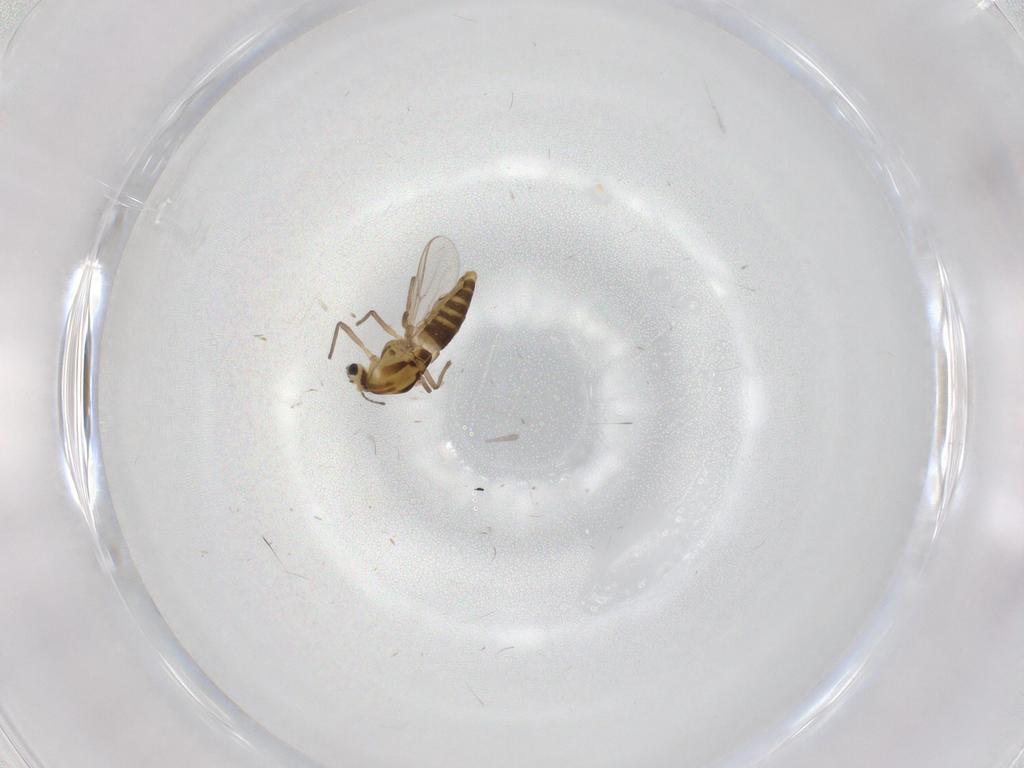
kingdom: Animalia
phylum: Arthropoda
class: Insecta
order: Diptera
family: Chironomidae
